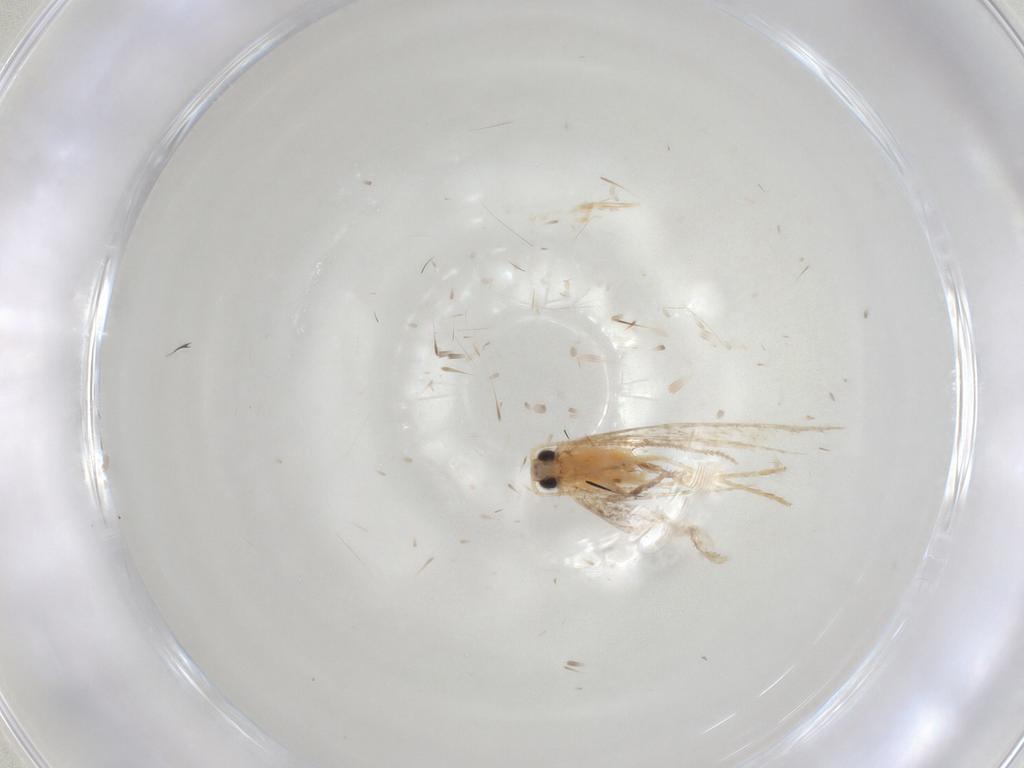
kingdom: Animalia
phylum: Arthropoda
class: Insecta
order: Lepidoptera
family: Tineidae
